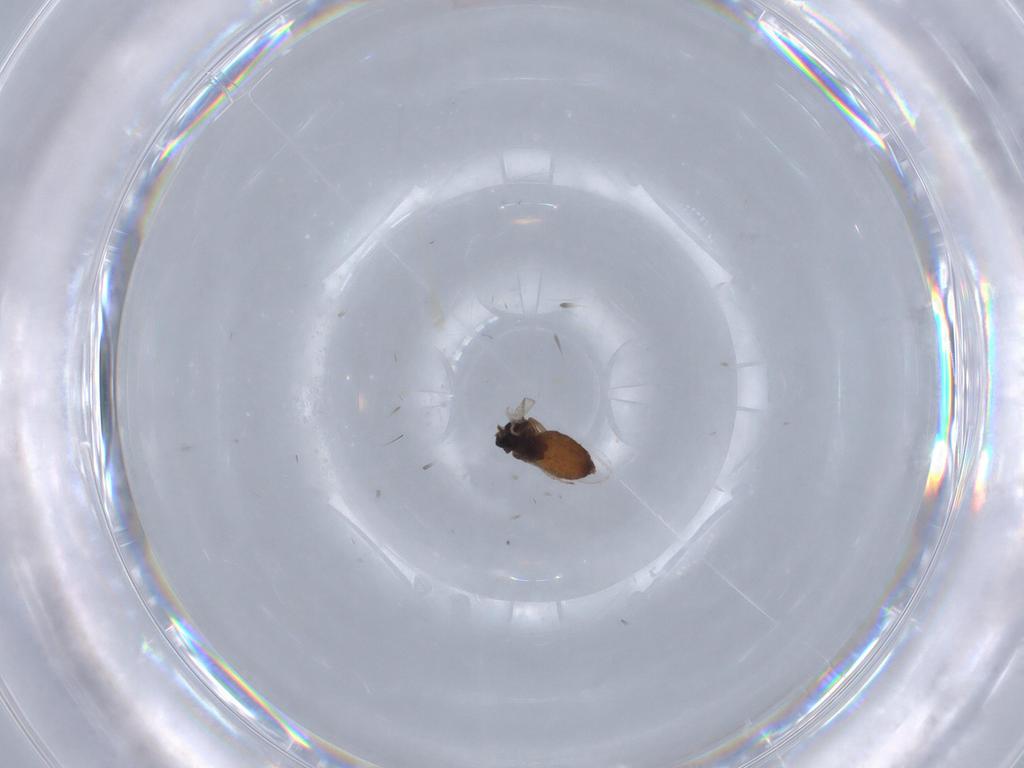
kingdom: Animalia
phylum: Arthropoda
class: Insecta
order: Diptera
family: Ceratopogonidae
